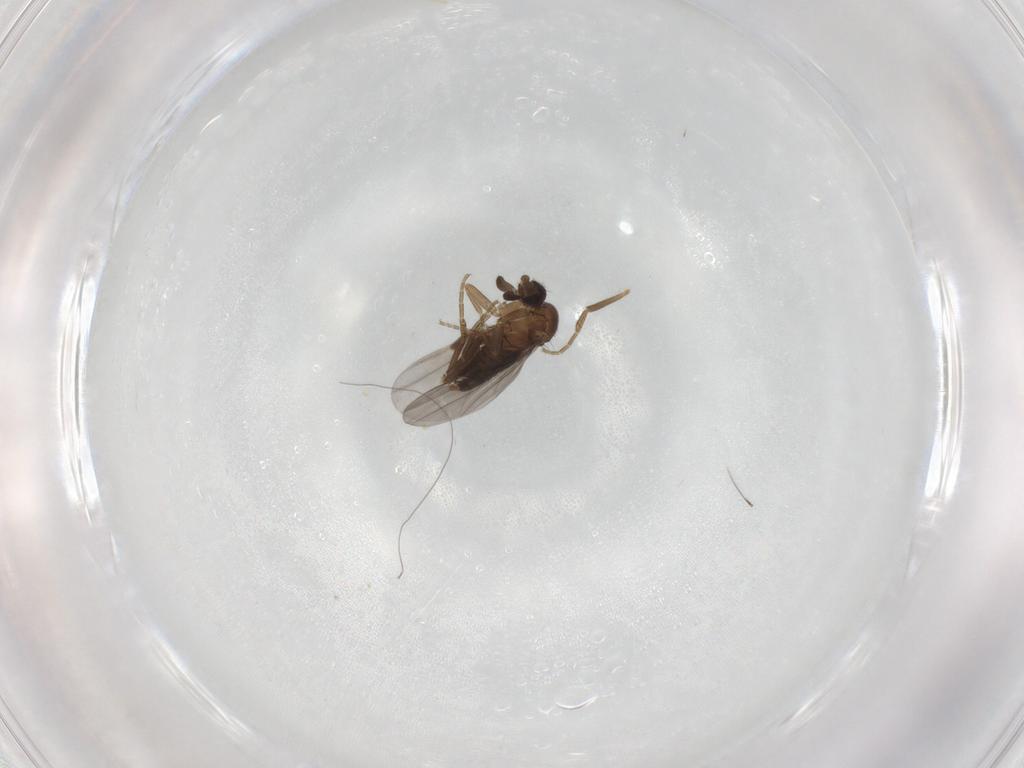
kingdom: Animalia
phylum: Arthropoda
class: Insecta
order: Diptera
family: Phoridae
